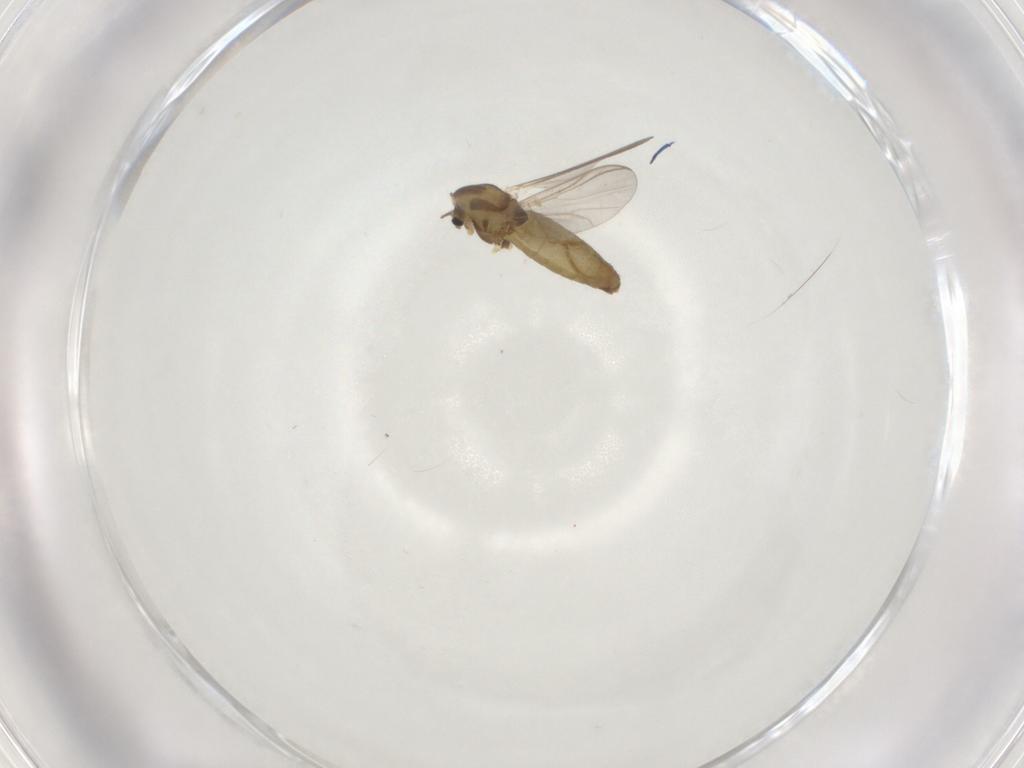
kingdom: Animalia
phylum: Arthropoda
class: Insecta
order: Diptera
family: Chironomidae
